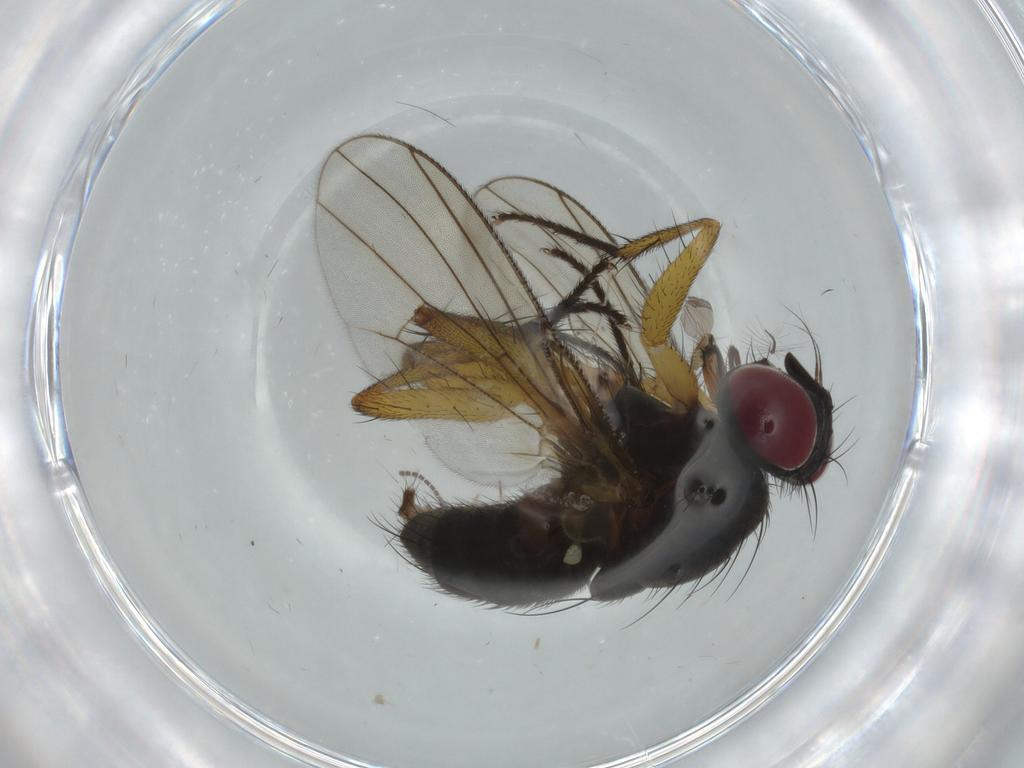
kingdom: Animalia
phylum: Arthropoda
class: Insecta
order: Diptera
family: Muscidae
